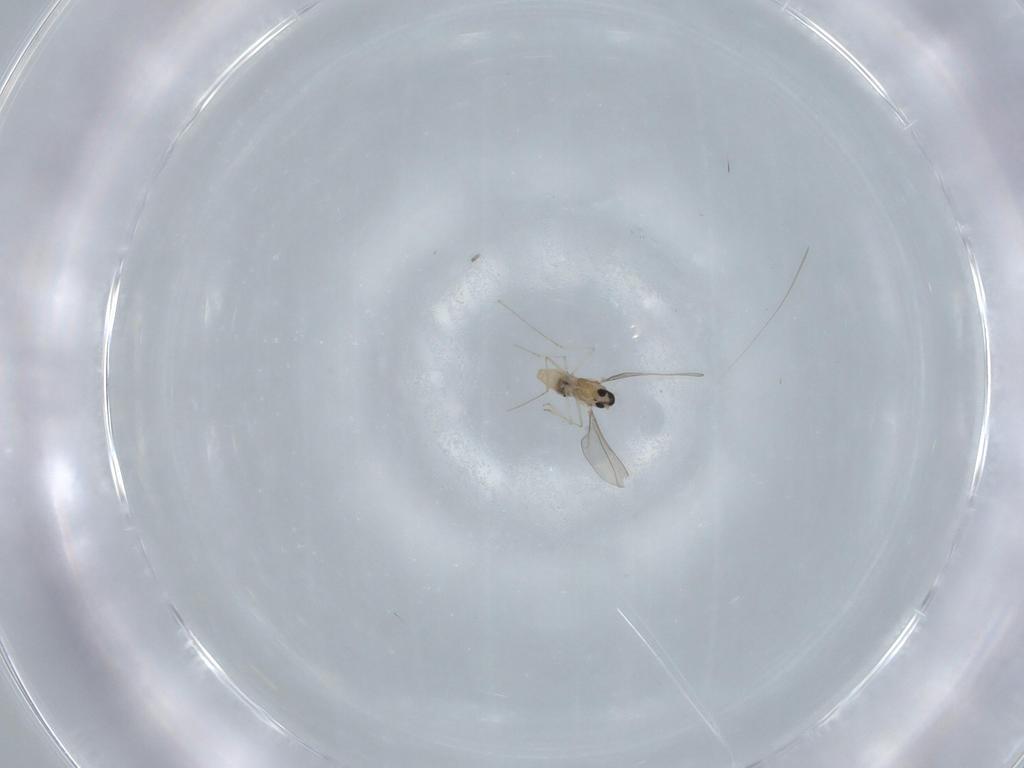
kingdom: Animalia
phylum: Arthropoda
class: Insecta
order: Diptera
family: Cecidomyiidae
